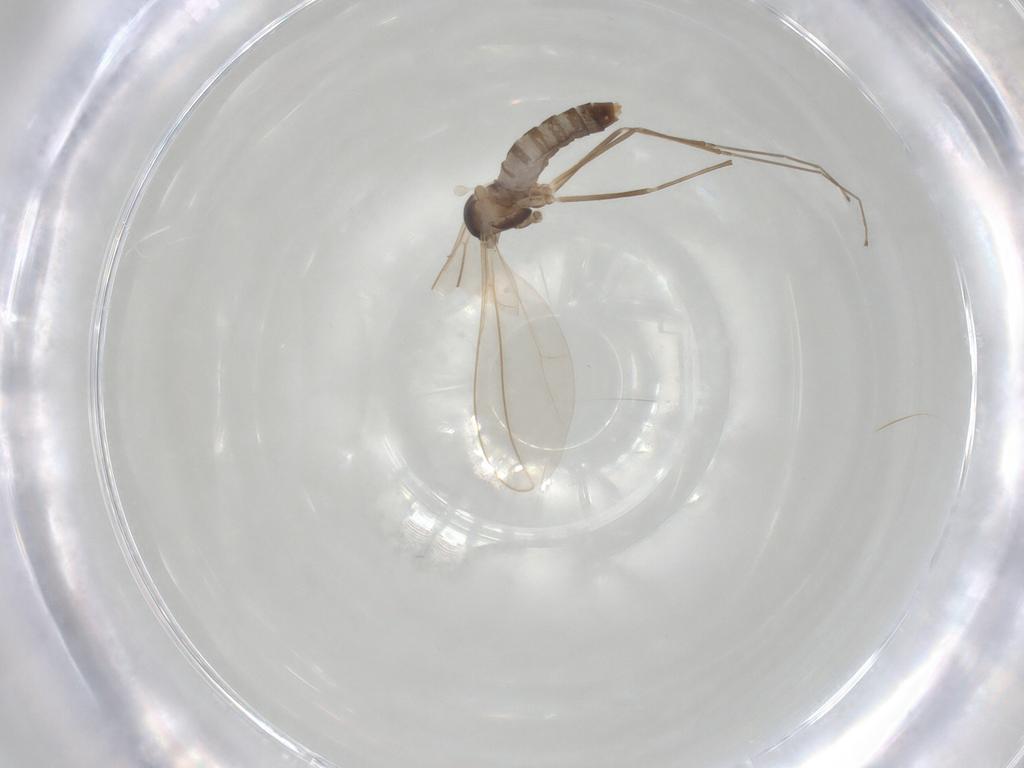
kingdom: Animalia
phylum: Arthropoda
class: Insecta
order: Diptera
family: Cecidomyiidae
